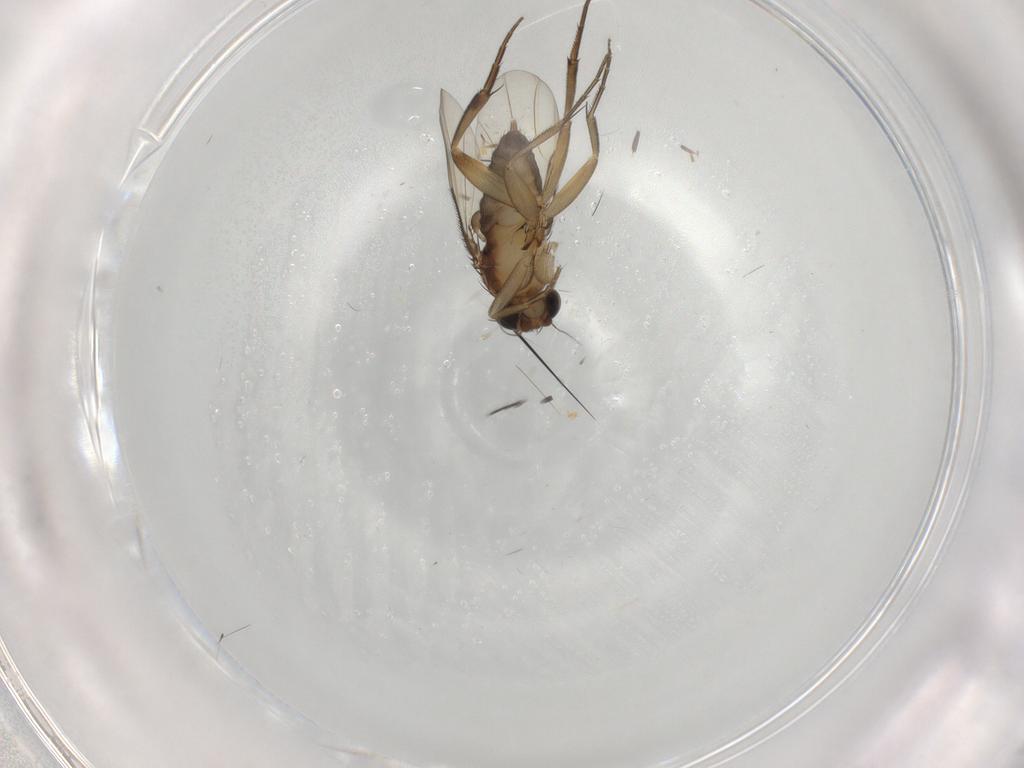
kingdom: Animalia
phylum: Arthropoda
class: Insecta
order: Diptera
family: Phoridae
